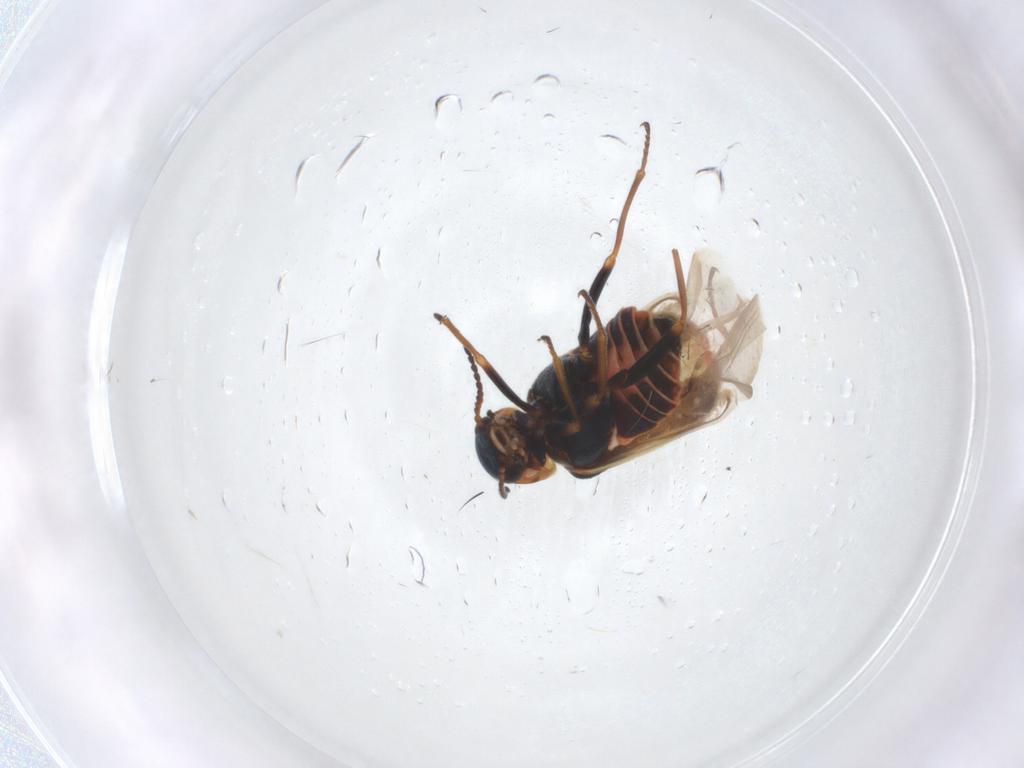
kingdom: Animalia
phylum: Arthropoda
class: Insecta
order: Coleoptera
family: Melyridae
